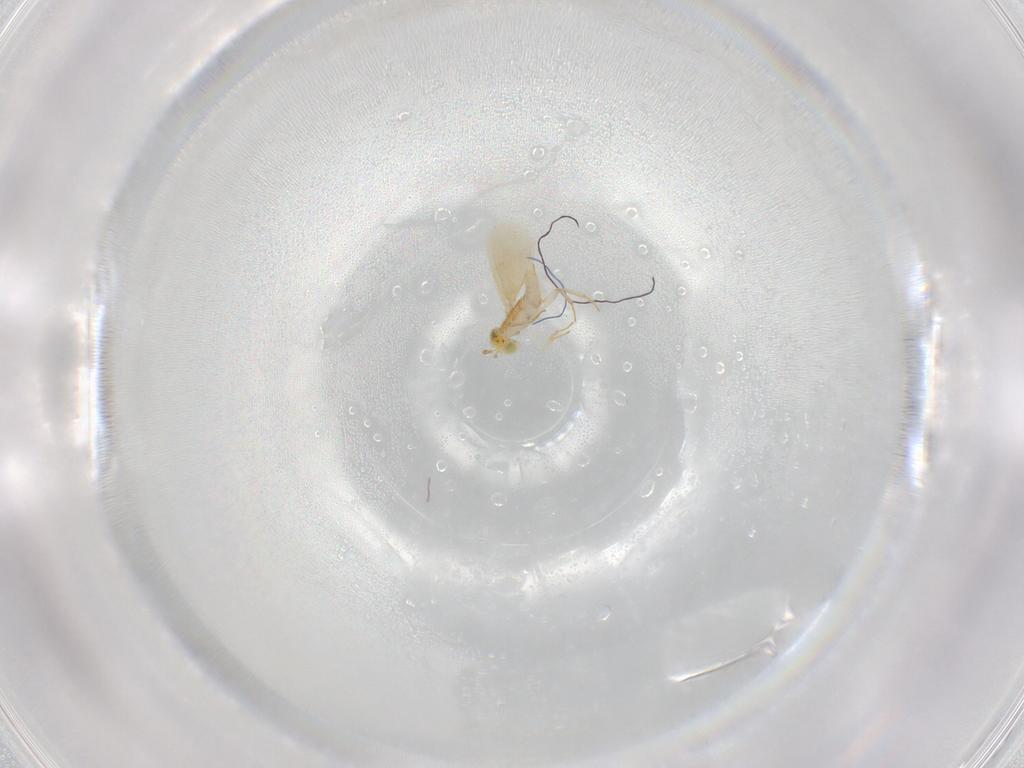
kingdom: Animalia
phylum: Arthropoda
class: Insecta
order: Hymenoptera
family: Aphelinidae
